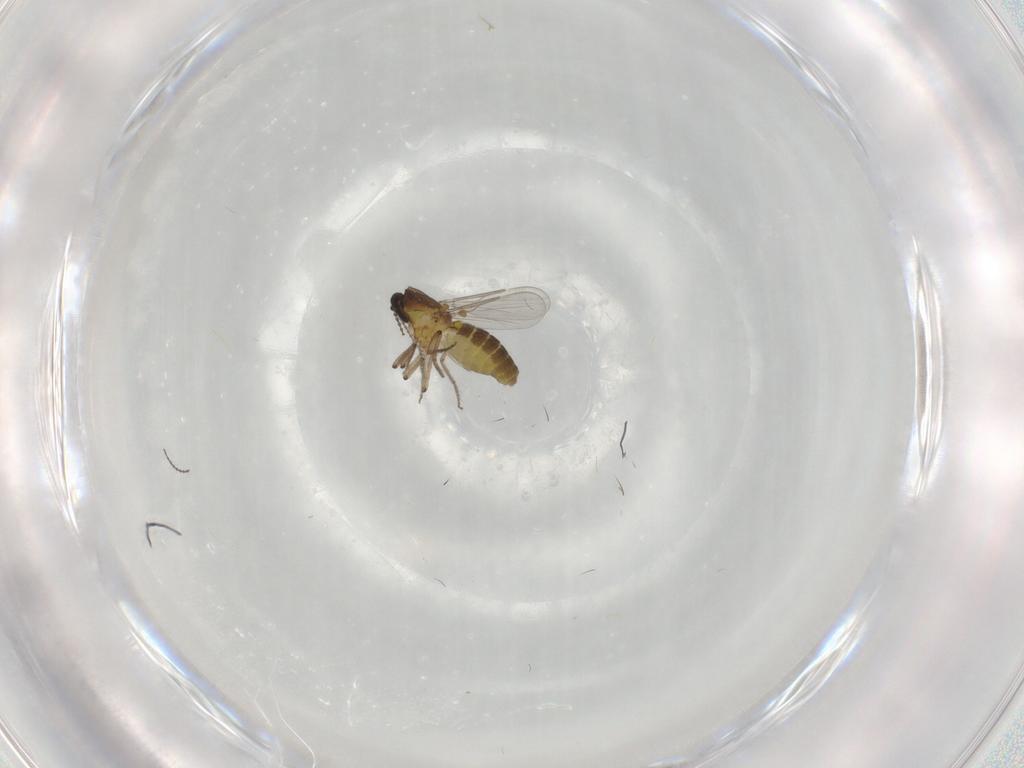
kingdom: Animalia
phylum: Arthropoda
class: Insecta
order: Diptera
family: Ceratopogonidae
